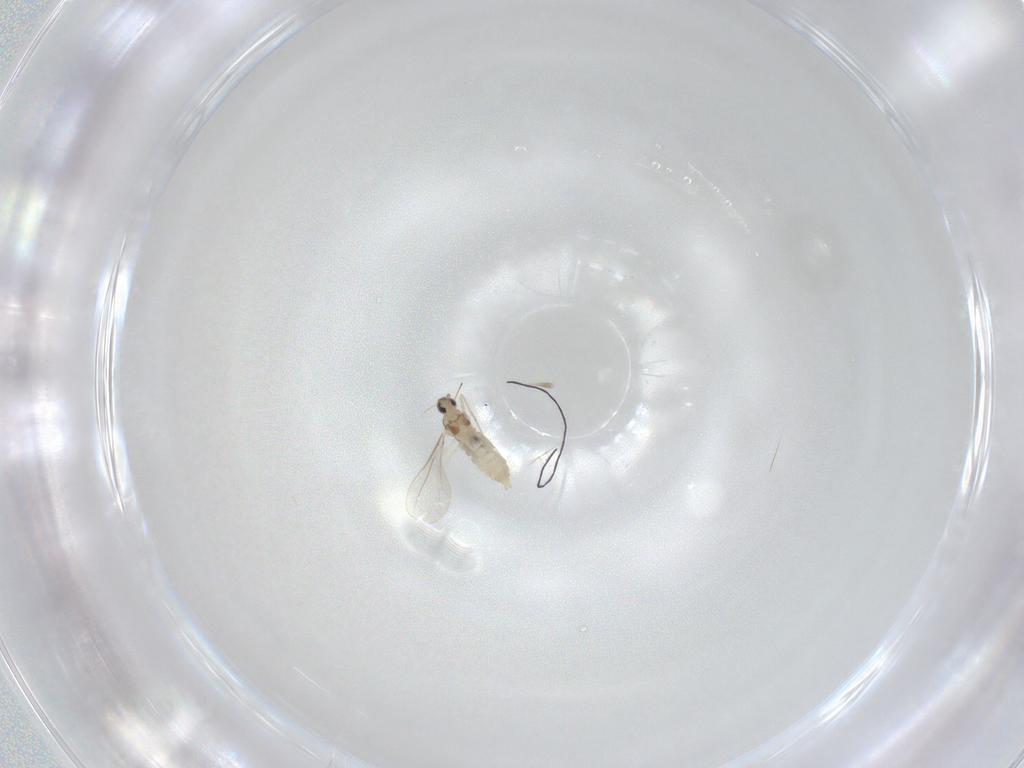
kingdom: Animalia
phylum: Arthropoda
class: Insecta
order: Diptera
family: Cecidomyiidae
